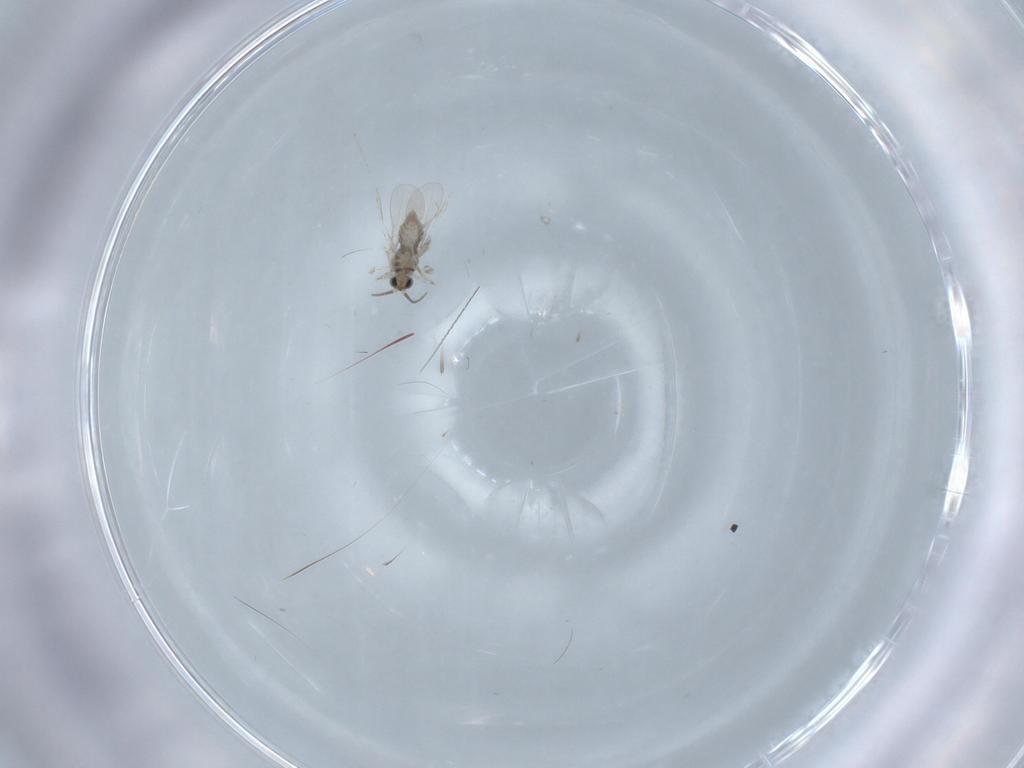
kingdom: Animalia
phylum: Arthropoda
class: Insecta
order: Diptera
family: Cecidomyiidae
